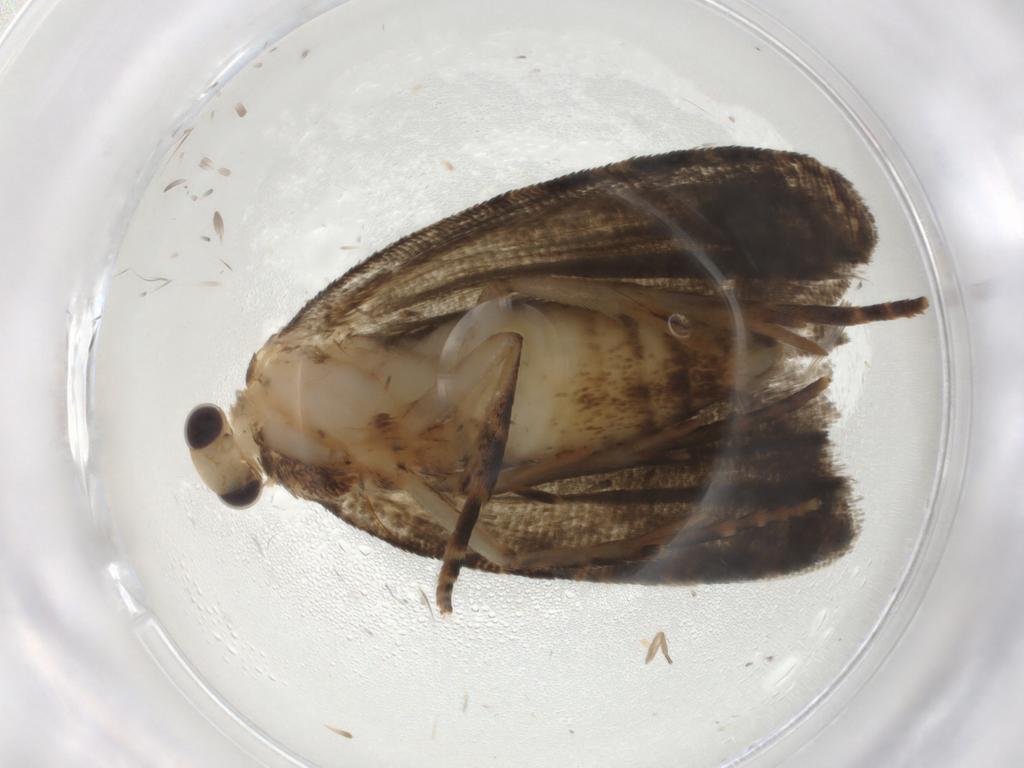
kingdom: Animalia
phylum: Arthropoda
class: Insecta
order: Lepidoptera
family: Tortricidae
